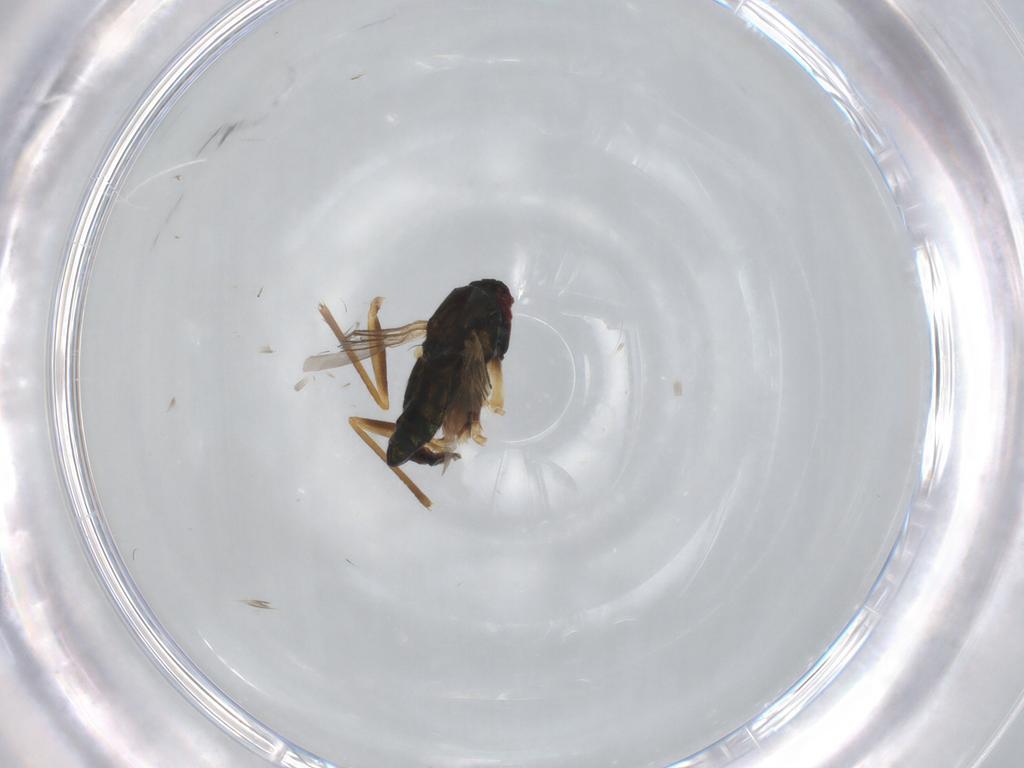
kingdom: Animalia
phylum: Arthropoda
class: Insecta
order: Diptera
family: Dolichopodidae
